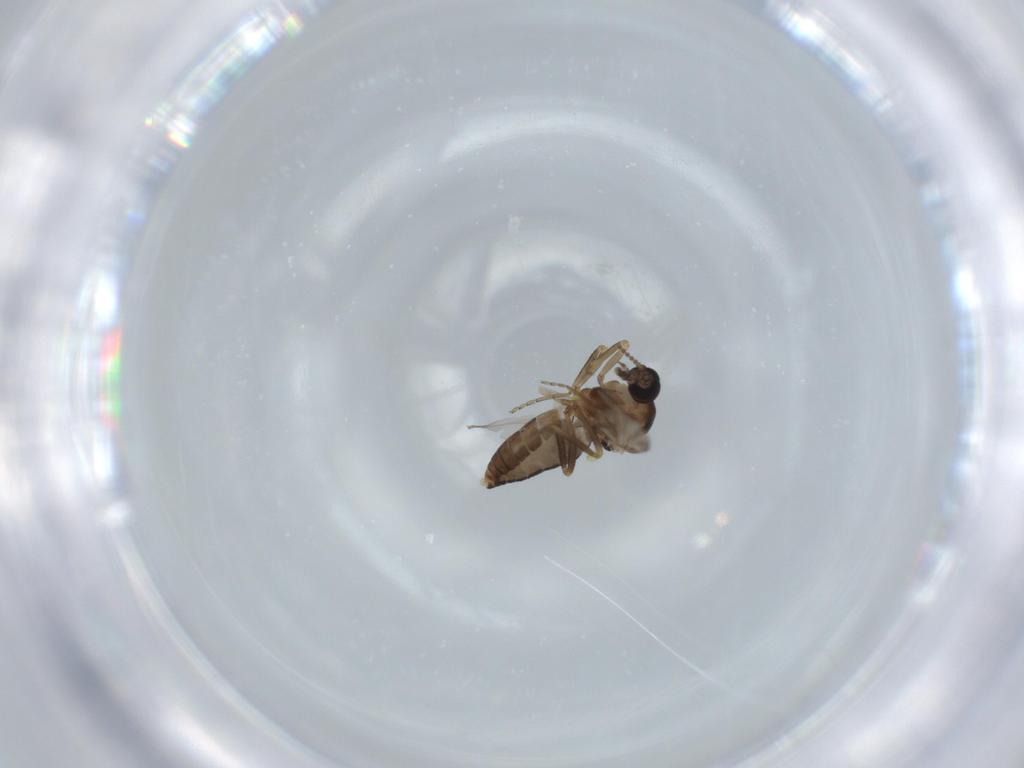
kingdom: Animalia
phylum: Arthropoda
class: Insecta
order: Diptera
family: Ceratopogonidae
